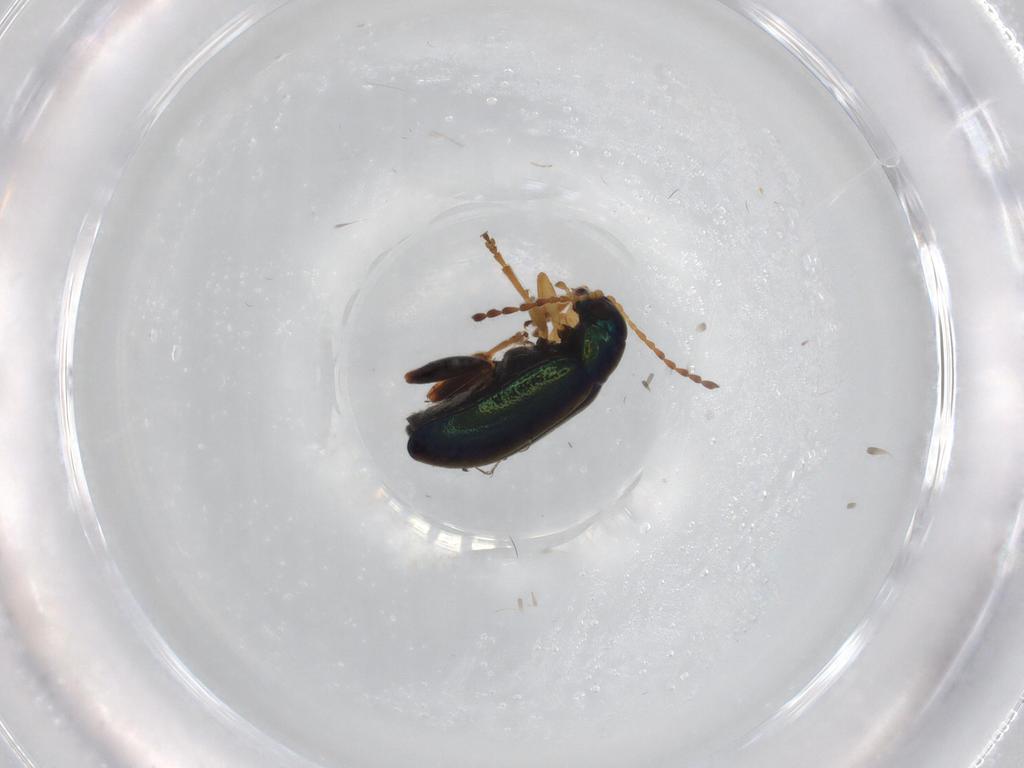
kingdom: Animalia
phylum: Arthropoda
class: Insecta
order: Coleoptera
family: Chrysomelidae
